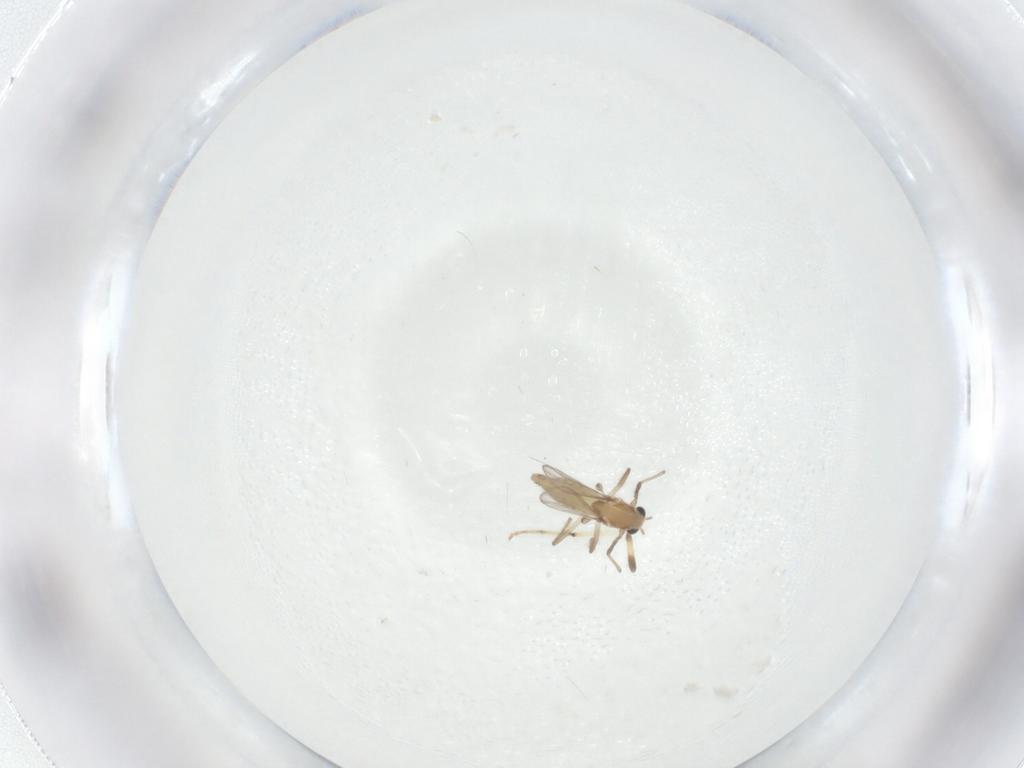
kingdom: Animalia
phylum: Arthropoda
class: Insecta
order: Diptera
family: Chironomidae
